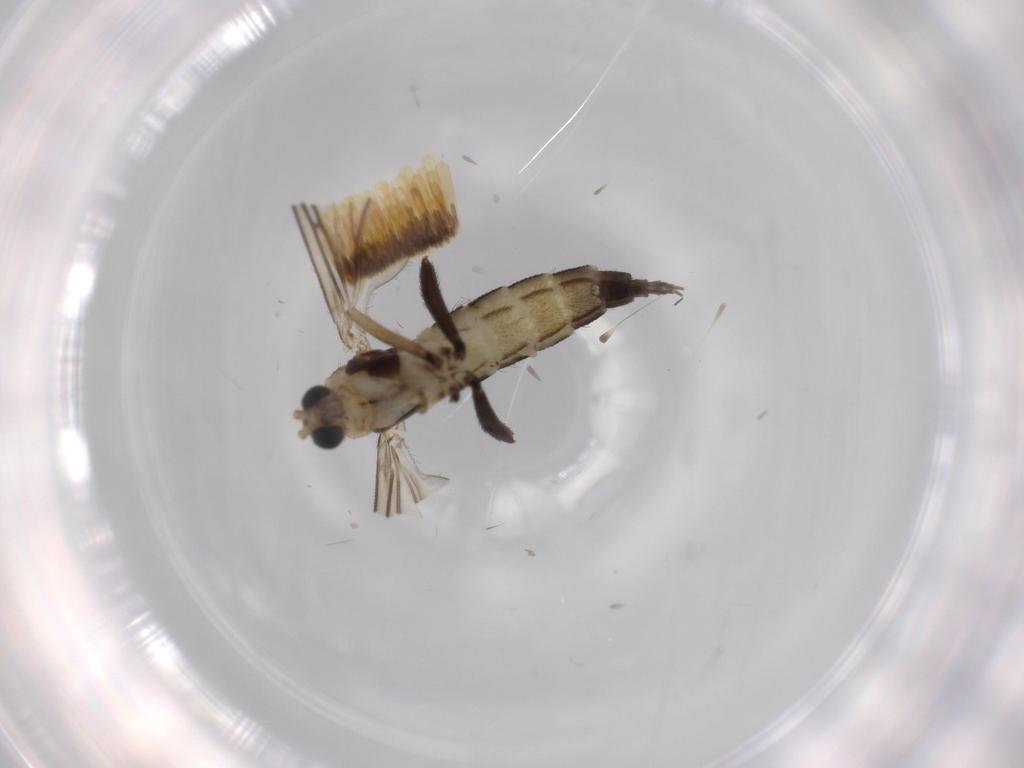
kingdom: Animalia
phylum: Arthropoda
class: Insecta
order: Diptera
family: Sciaridae
